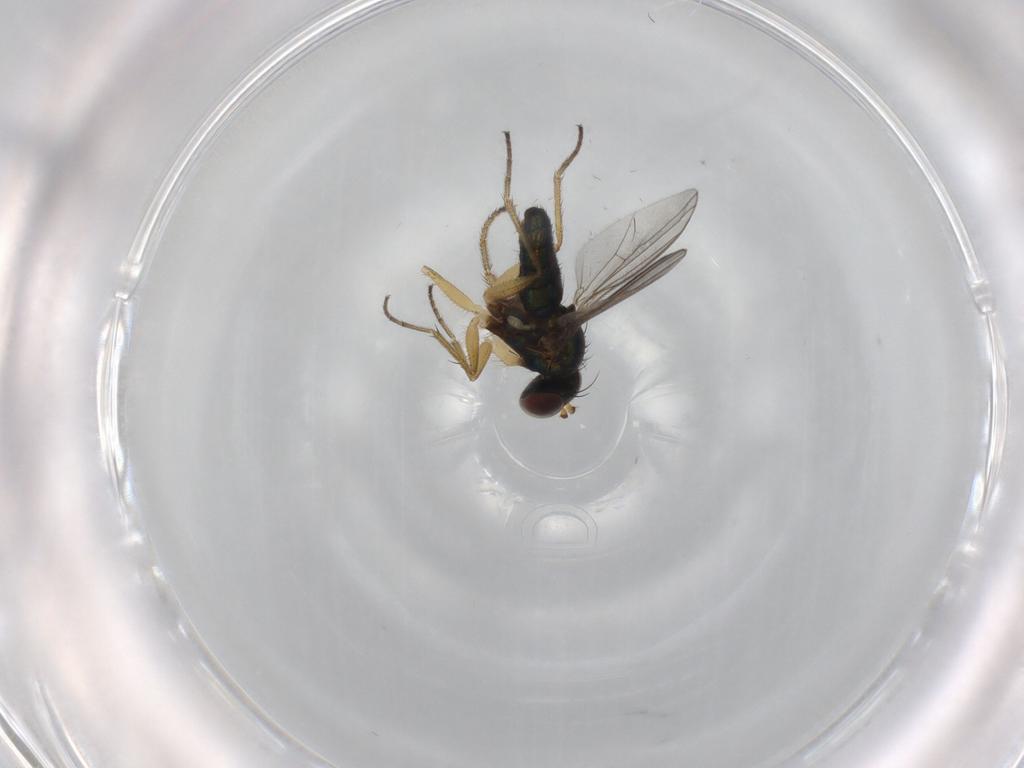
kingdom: Animalia
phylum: Arthropoda
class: Insecta
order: Diptera
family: Dolichopodidae
